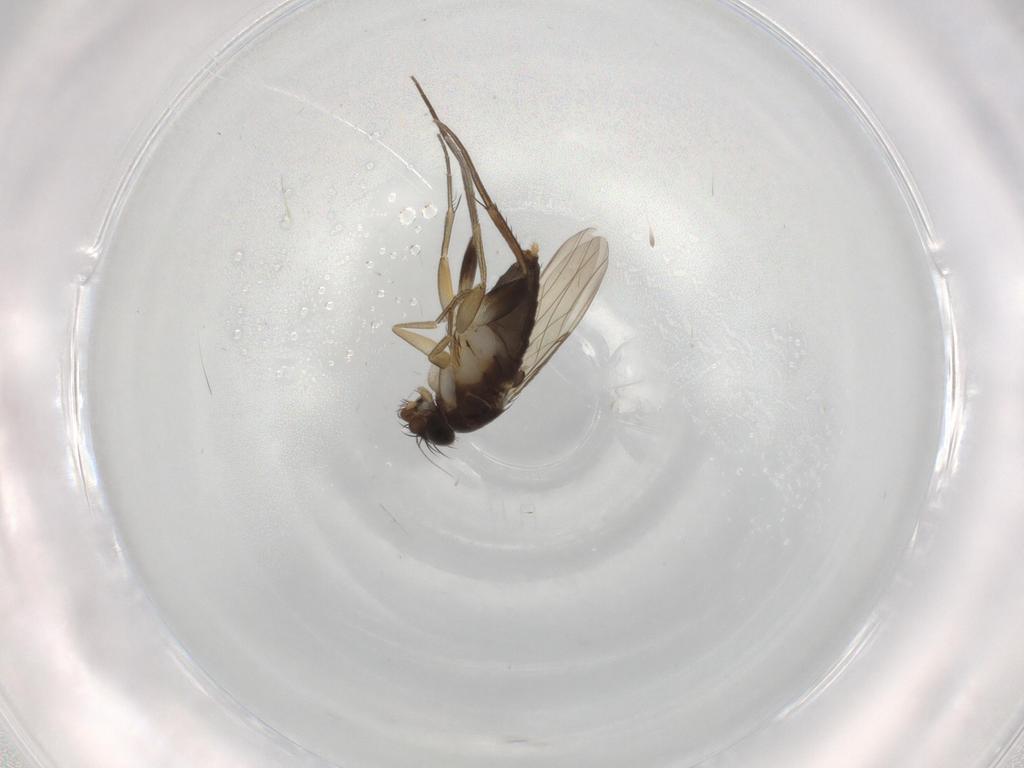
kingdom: Animalia
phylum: Arthropoda
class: Insecta
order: Diptera
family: Phoridae
